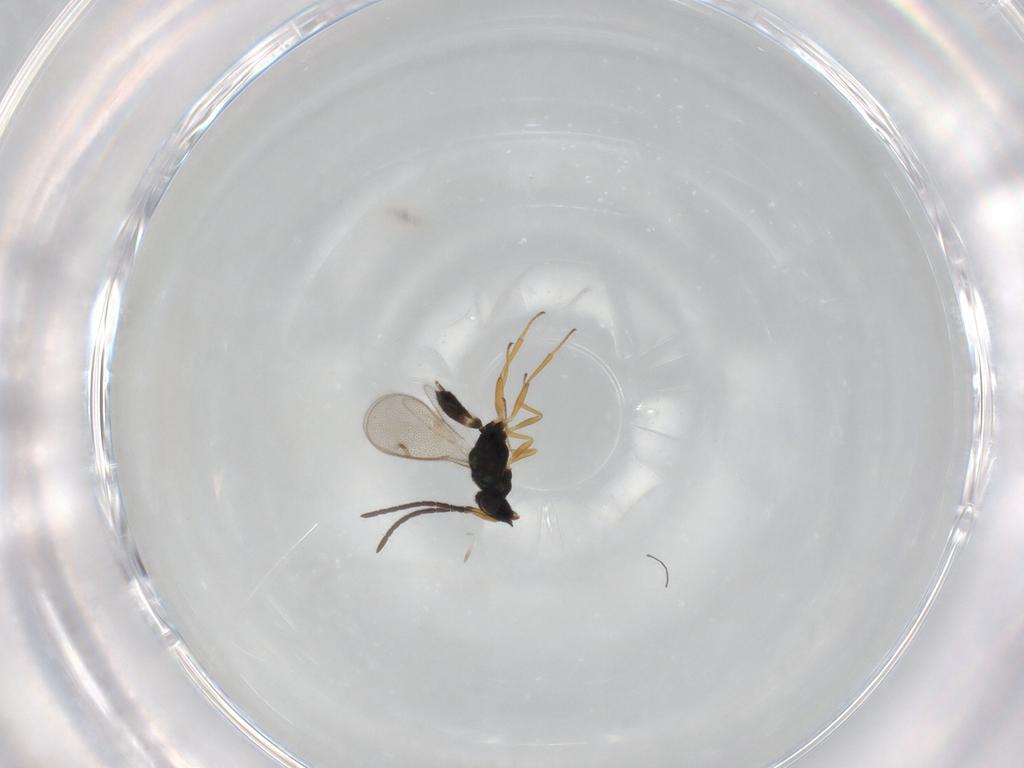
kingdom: Animalia
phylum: Arthropoda
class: Insecta
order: Hymenoptera
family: Pteromalidae
